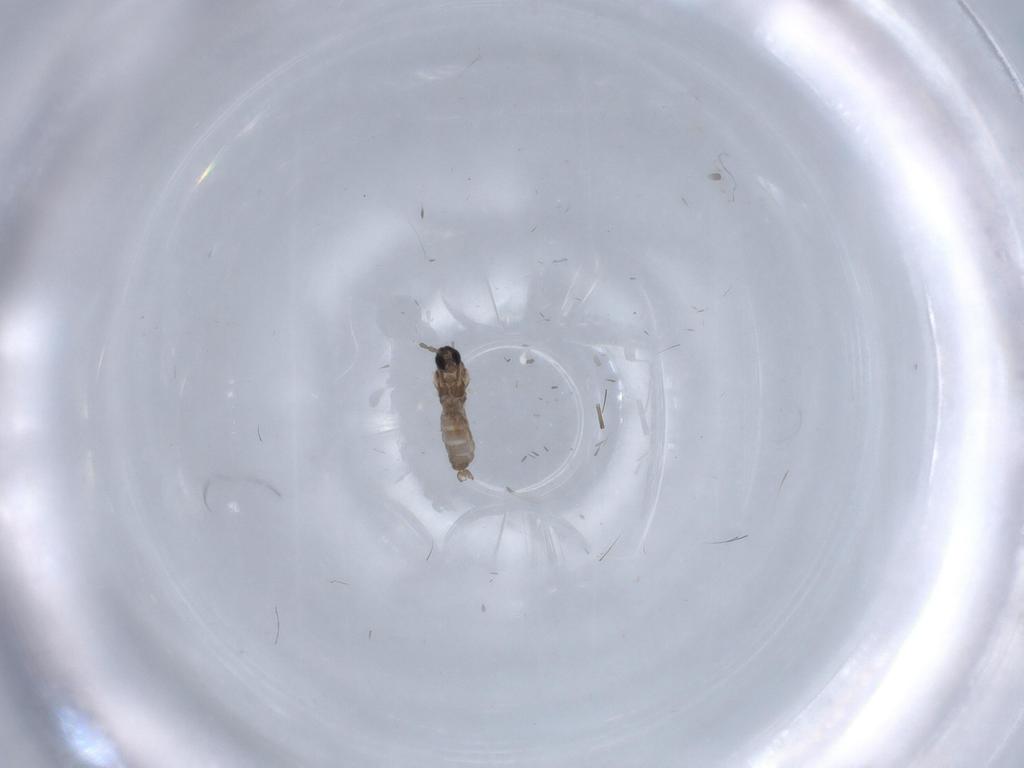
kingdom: Animalia
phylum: Arthropoda
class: Insecta
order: Diptera
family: Cecidomyiidae
